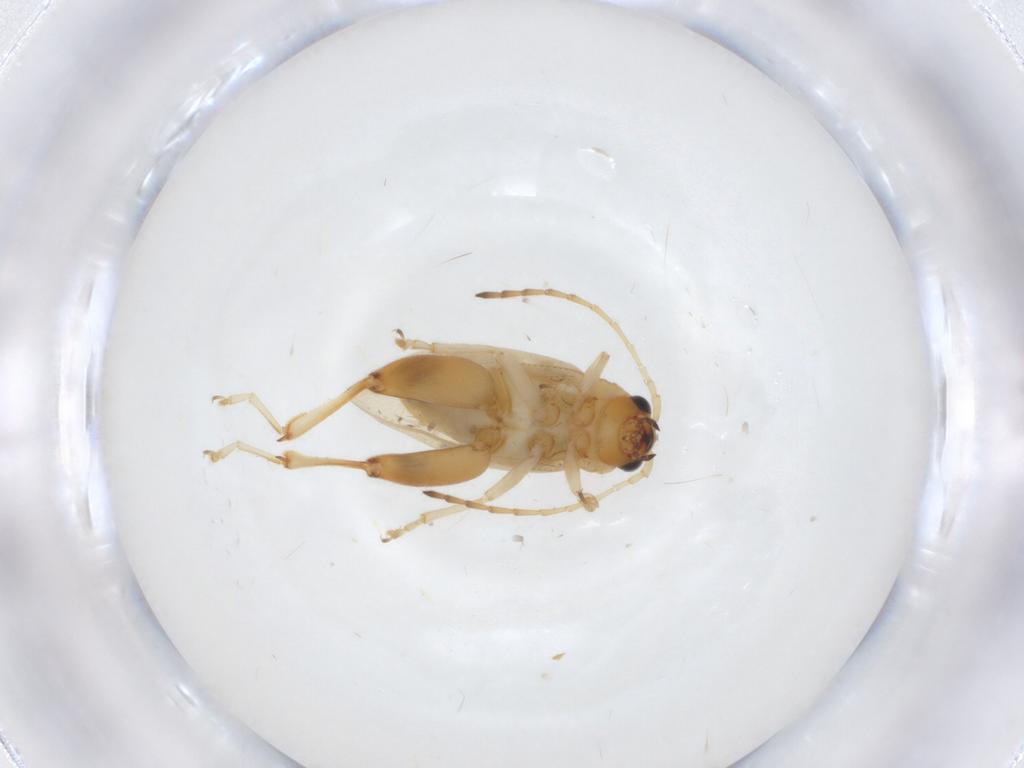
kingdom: Animalia
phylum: Arthropoda
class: Insecta
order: Coleoptera
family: Chrysomelidae
